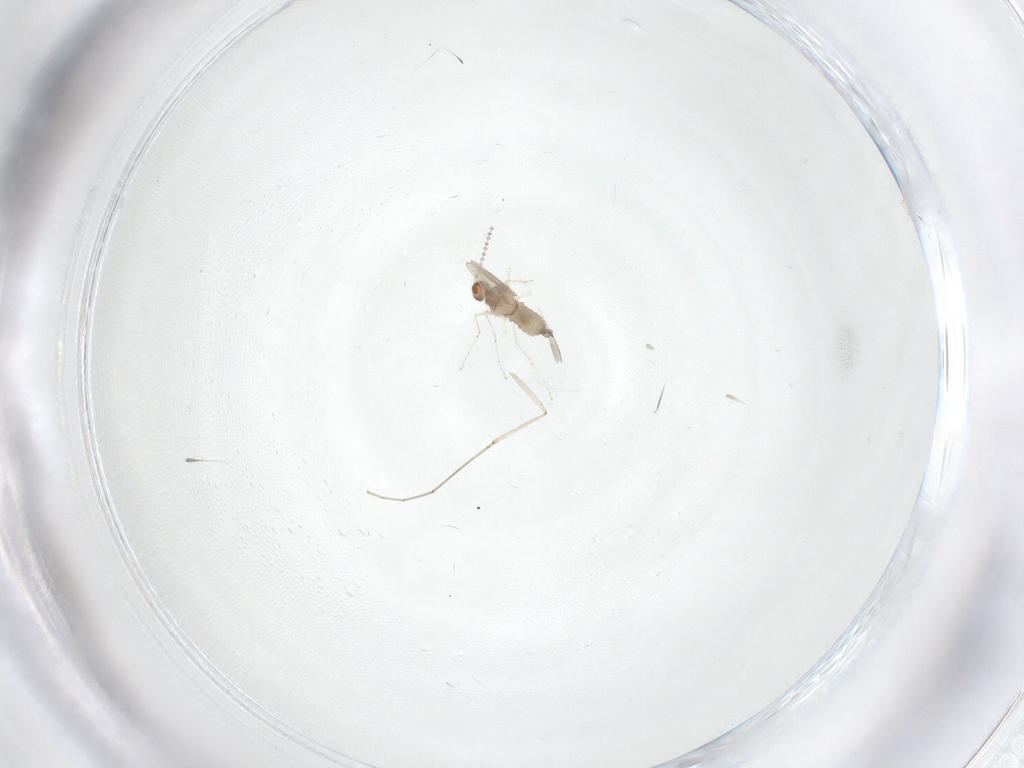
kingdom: Animalia
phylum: Arthropoda
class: Insecta
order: Diptera
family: Cecidomyiidae
